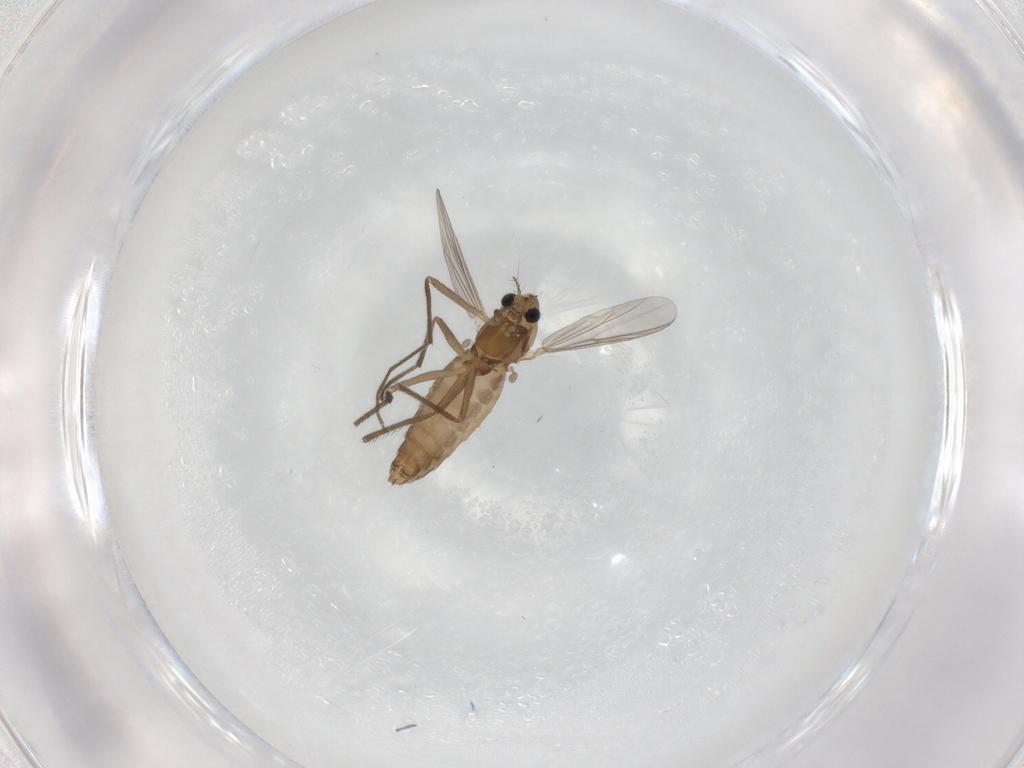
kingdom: Animalia
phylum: Arthropoda
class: Insecta
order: Diptera
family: Chironomidae
